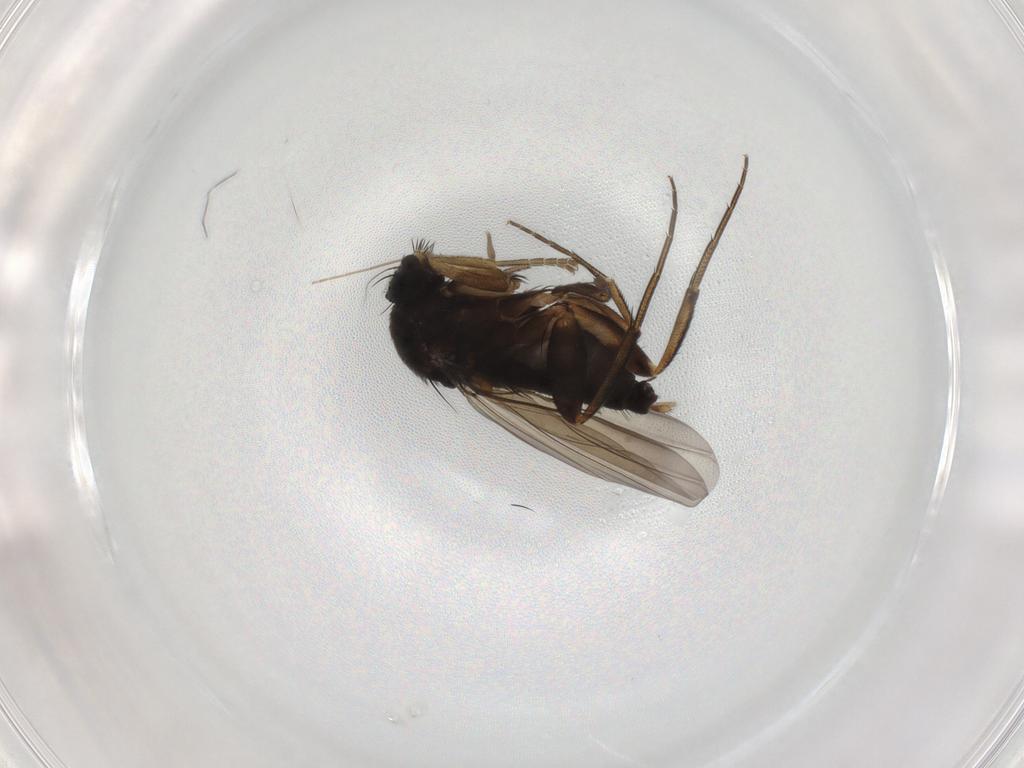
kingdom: Animalia
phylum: Arthropoda
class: Insecta
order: Diptera
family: Phoridae
